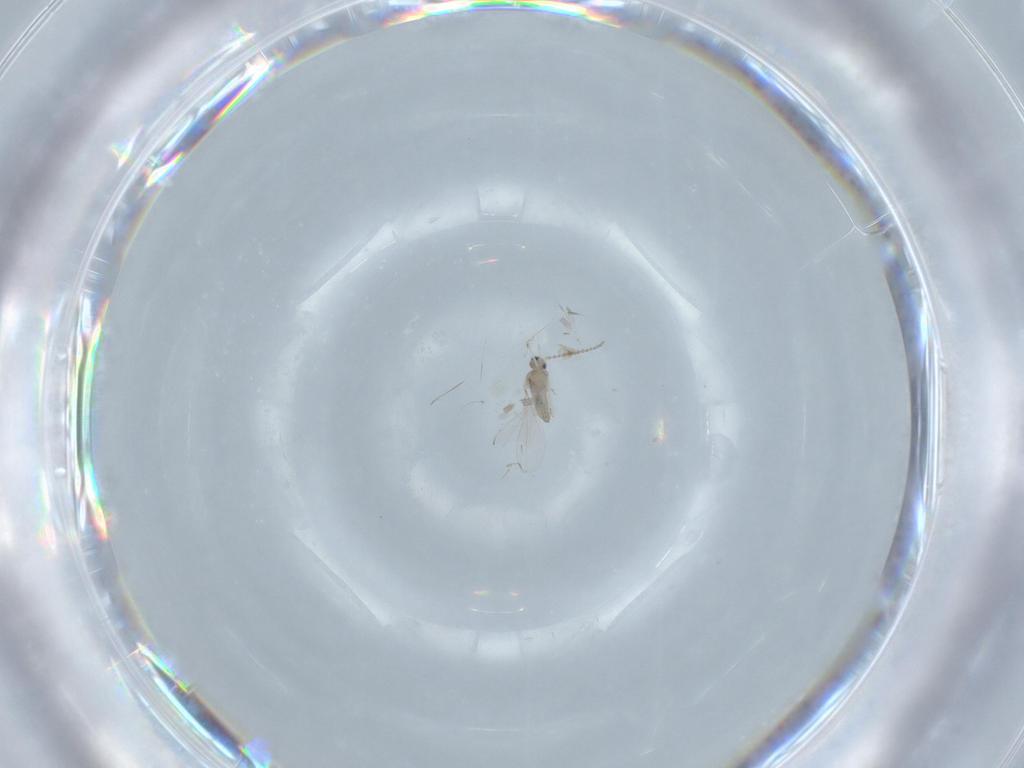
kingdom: Animalia
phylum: Arthropoda
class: Insecta
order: Diptera
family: Cecidomyiidae
